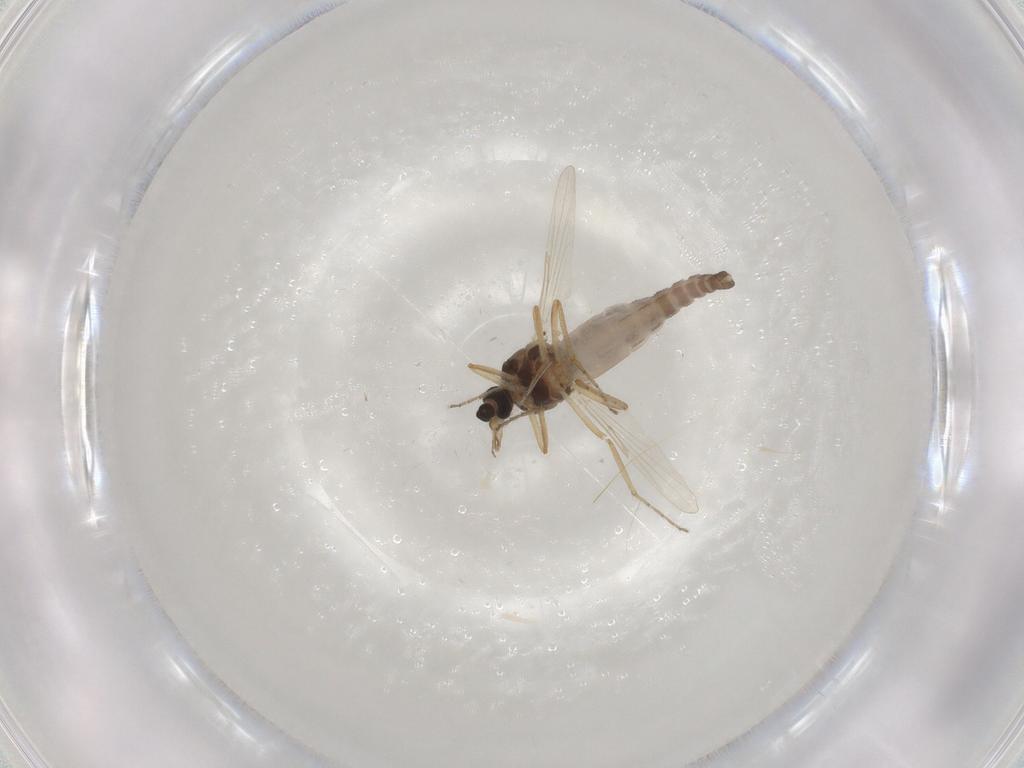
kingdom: Animalia
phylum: Arthropoda
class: Insecta
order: Diptera
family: Ceratopogonidae
